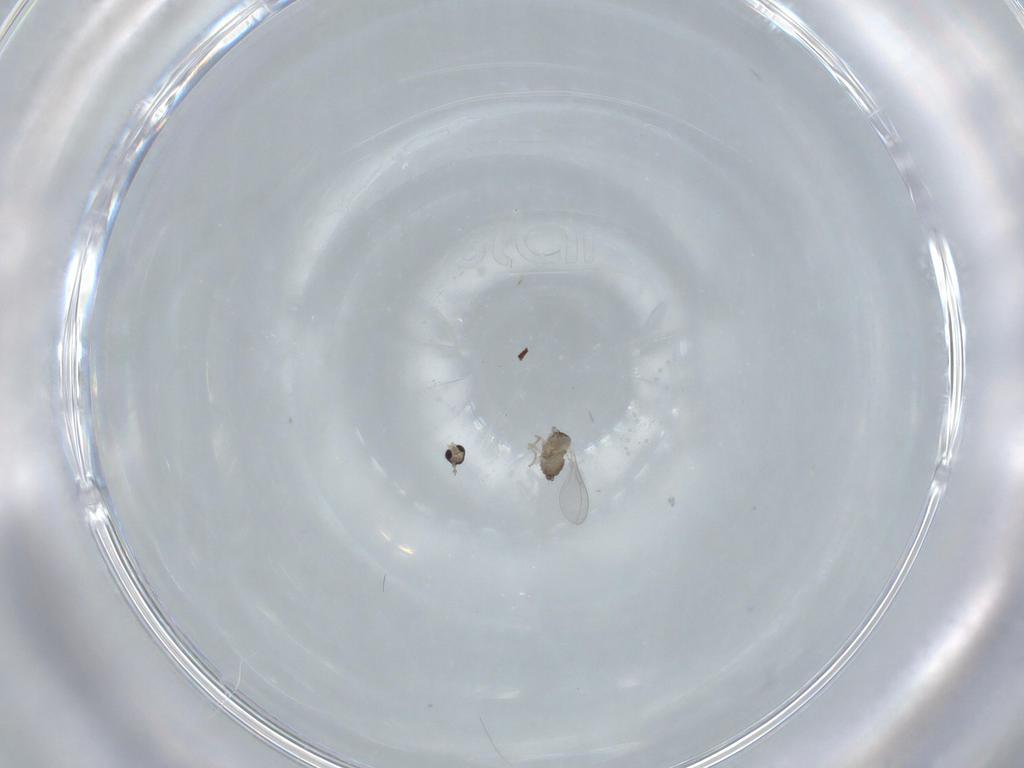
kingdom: Animalia
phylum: Arthropoda
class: Insecta
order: Diptera
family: Cecidomyiidae
